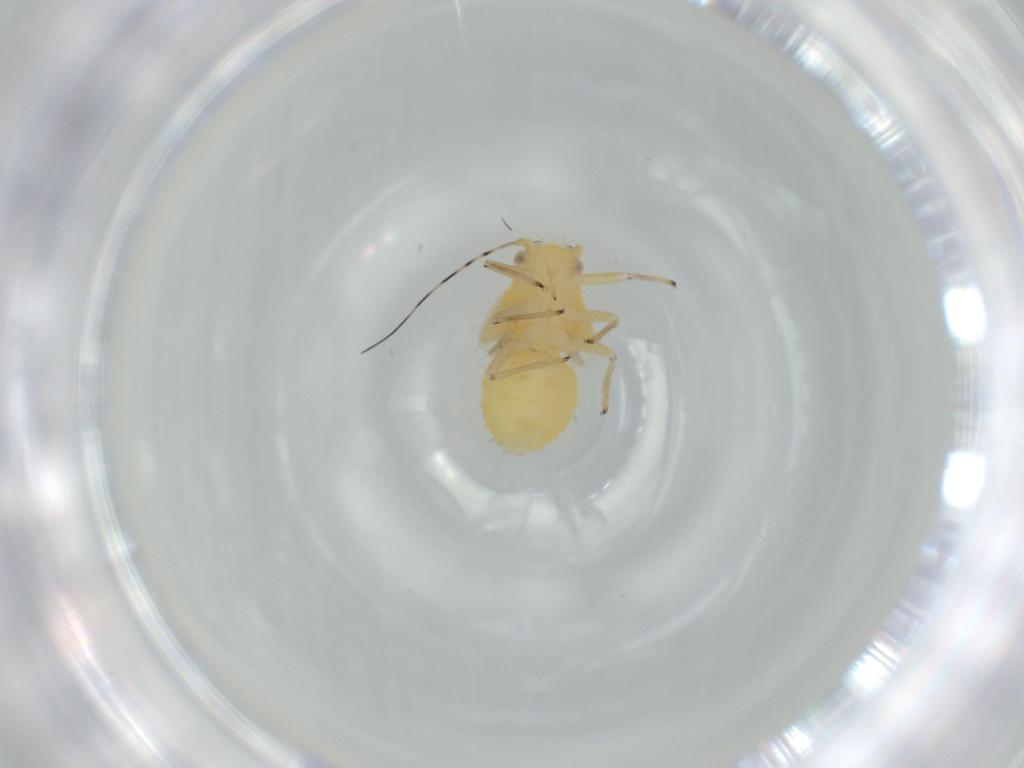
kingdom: Animalia
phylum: Arthropoda
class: Insecta
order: Hemiptera
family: Psyllidae
